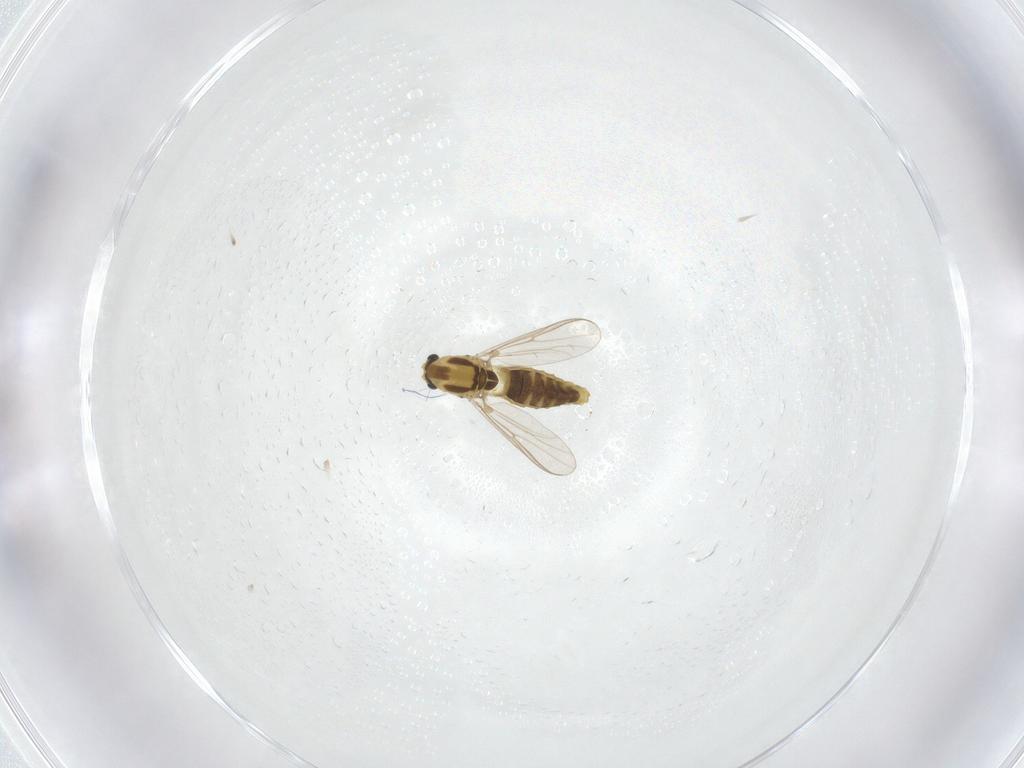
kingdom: Animalia
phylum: Arthropoda
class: Insecta
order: Diptera
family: Chironomidae
